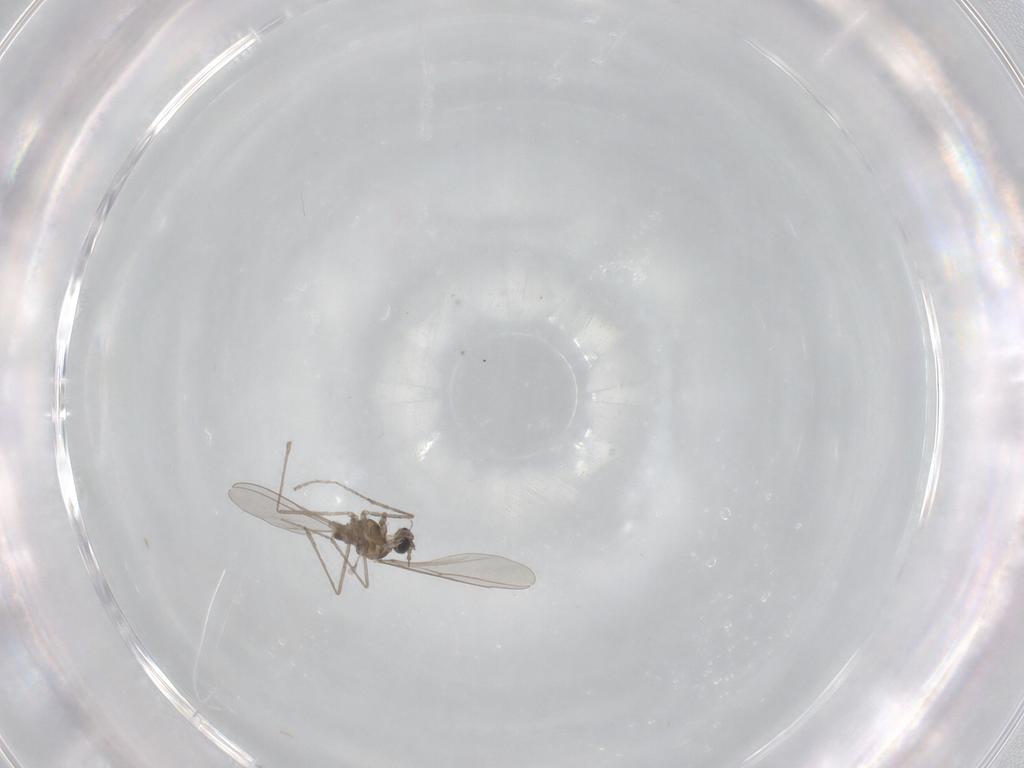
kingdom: Animalia
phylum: Arthropoda
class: Insecta
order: Diptera
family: Cecidomyiidae
